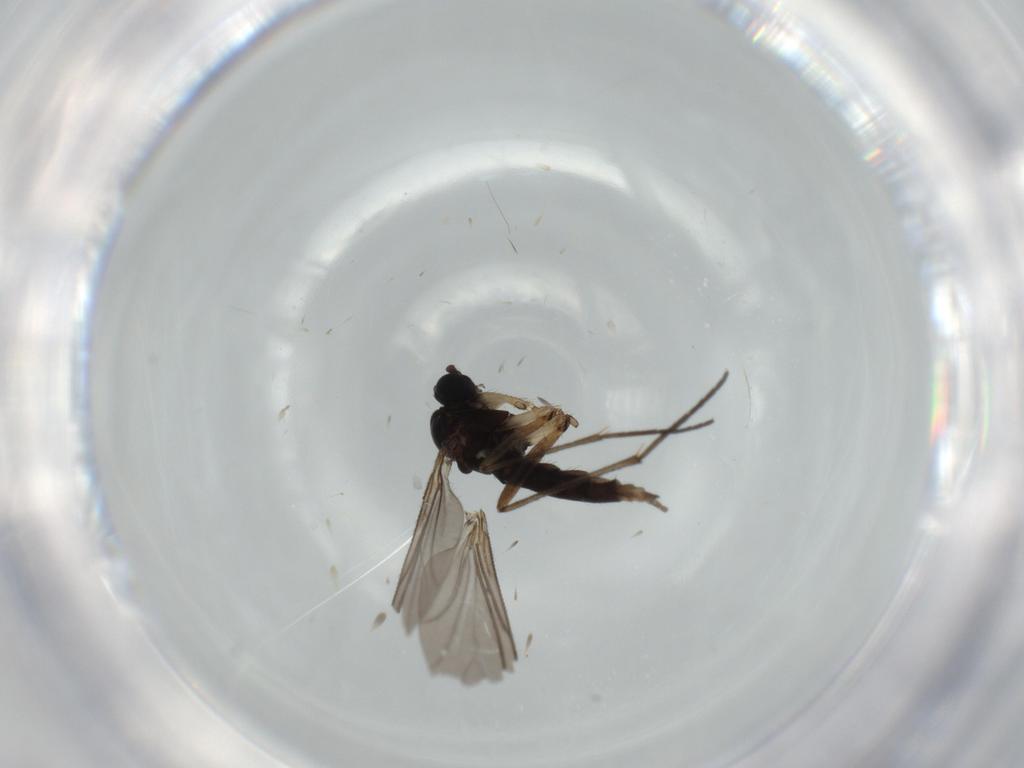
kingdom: Animalia
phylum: Arthropoda
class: Insecta
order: Diptera
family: Sciaridae
